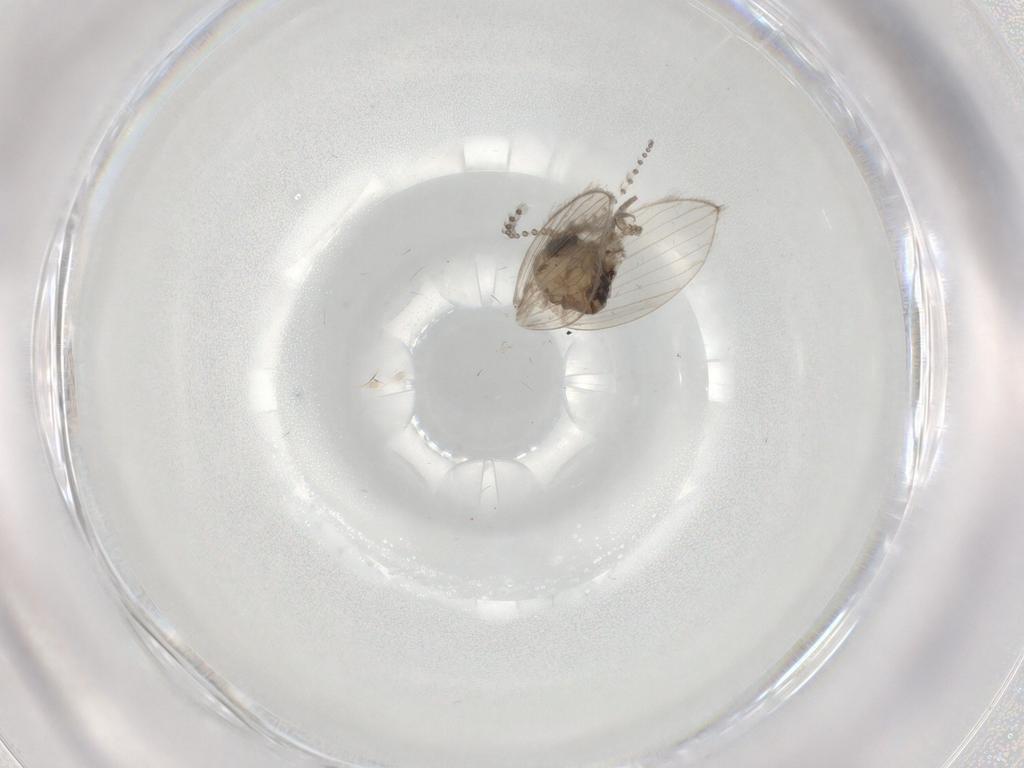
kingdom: Animalia
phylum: Arthropoda
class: Insecta
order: Diptera
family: Psychodidae
